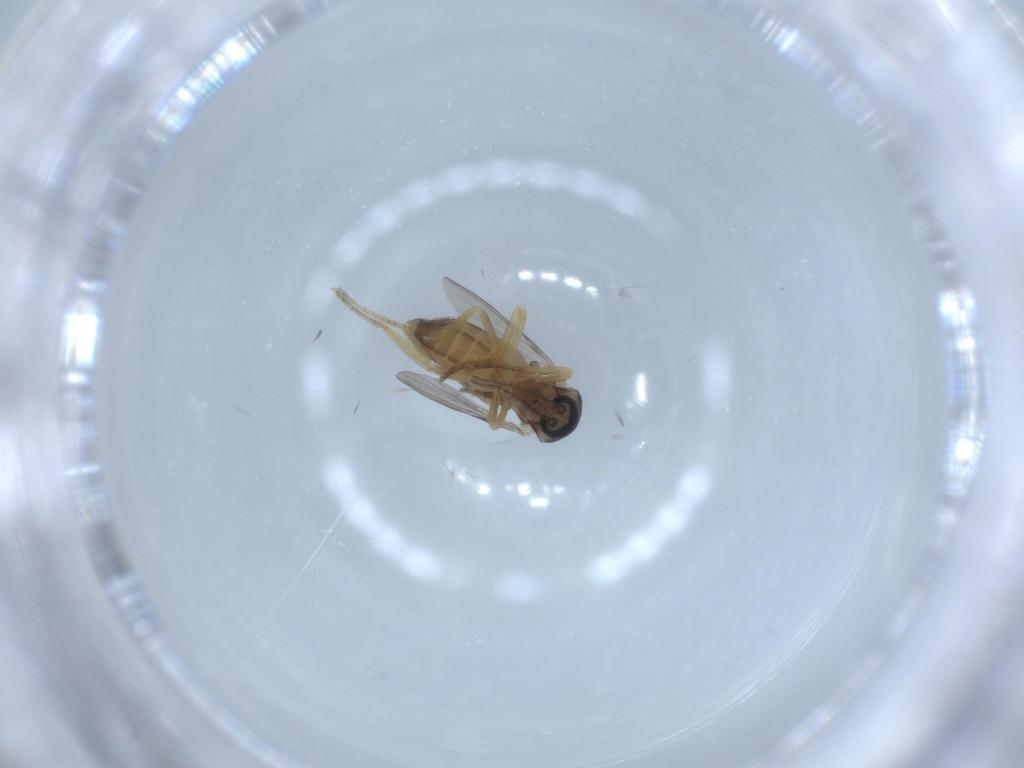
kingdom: Animalia
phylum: Arthropoda
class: Insecta
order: Diptera
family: Ceratopogonidae
